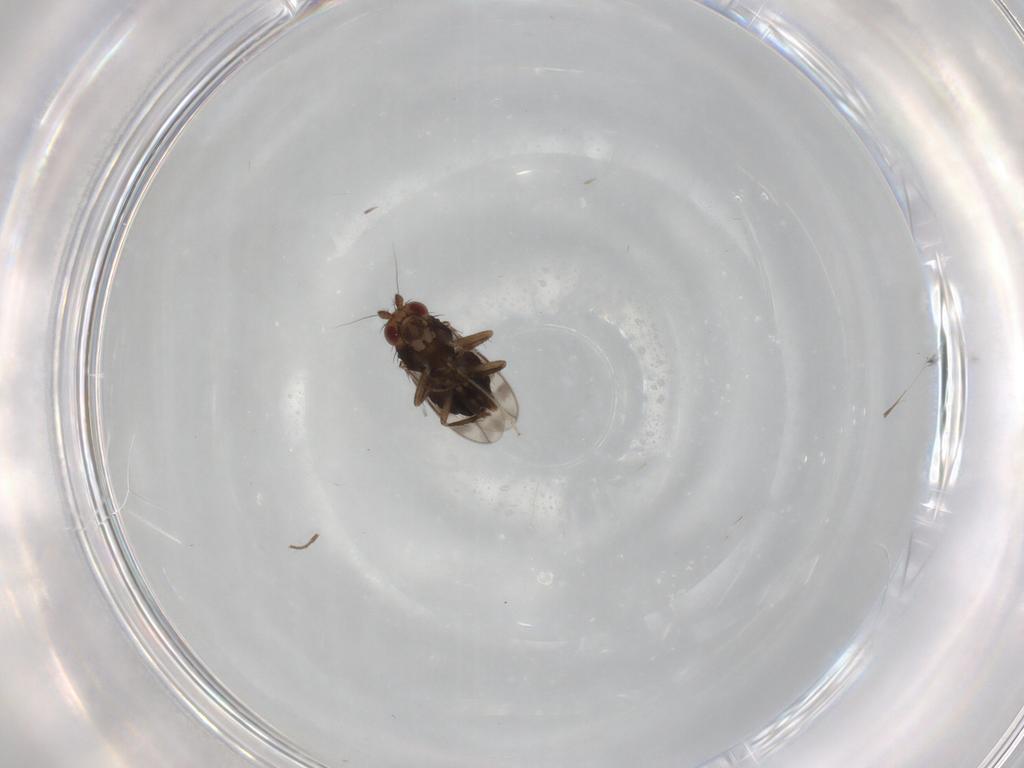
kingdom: Animalia
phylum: Arthropoda
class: Insecta
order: Diptera
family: Sphaeroceridae
